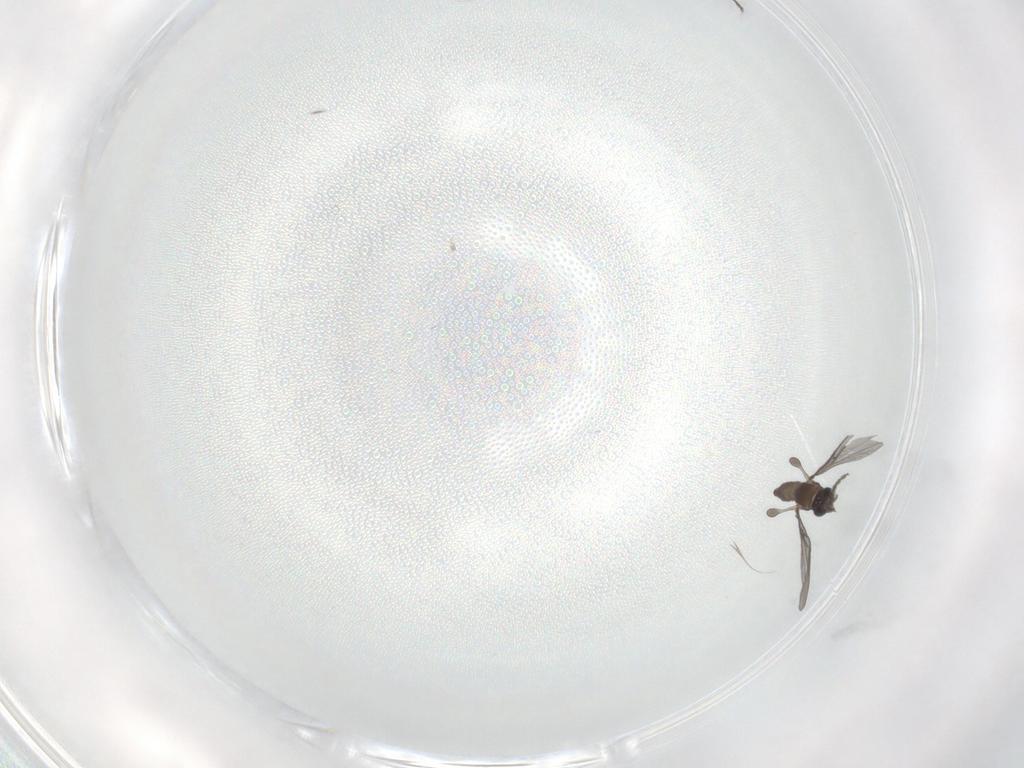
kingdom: Animalia
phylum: Arthropoda
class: Insecta
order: Diptera
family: Sciaridae
